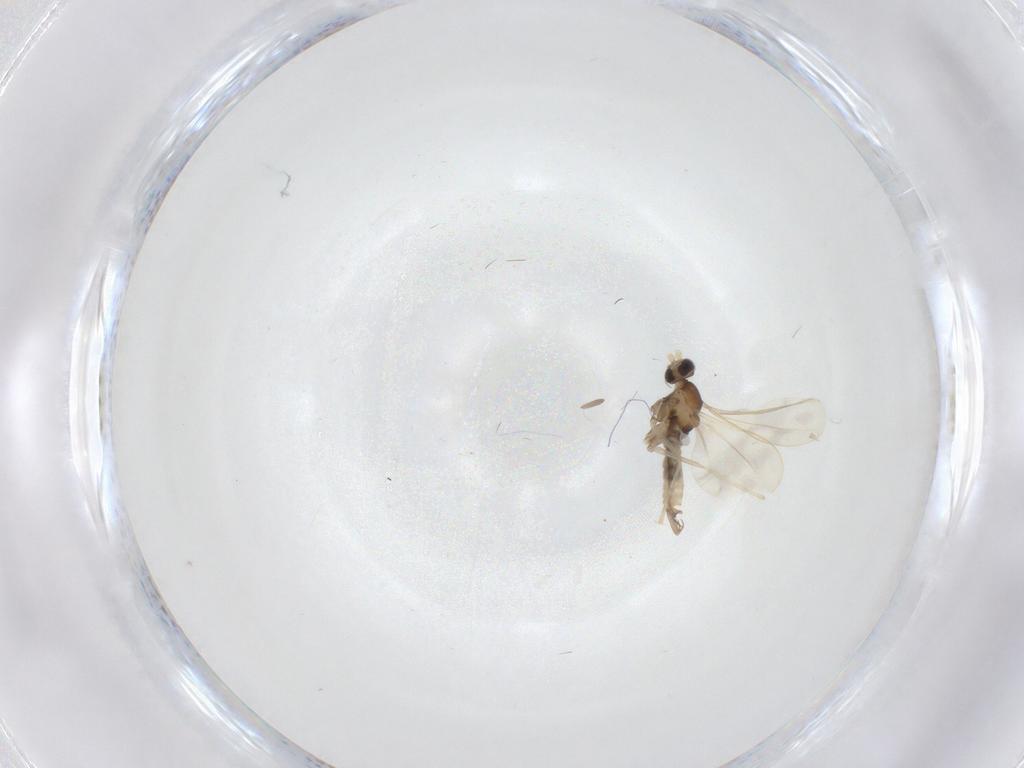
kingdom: Animalia
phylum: Arthropoda
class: Insecta
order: Diptera
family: Cecidomyiidae
